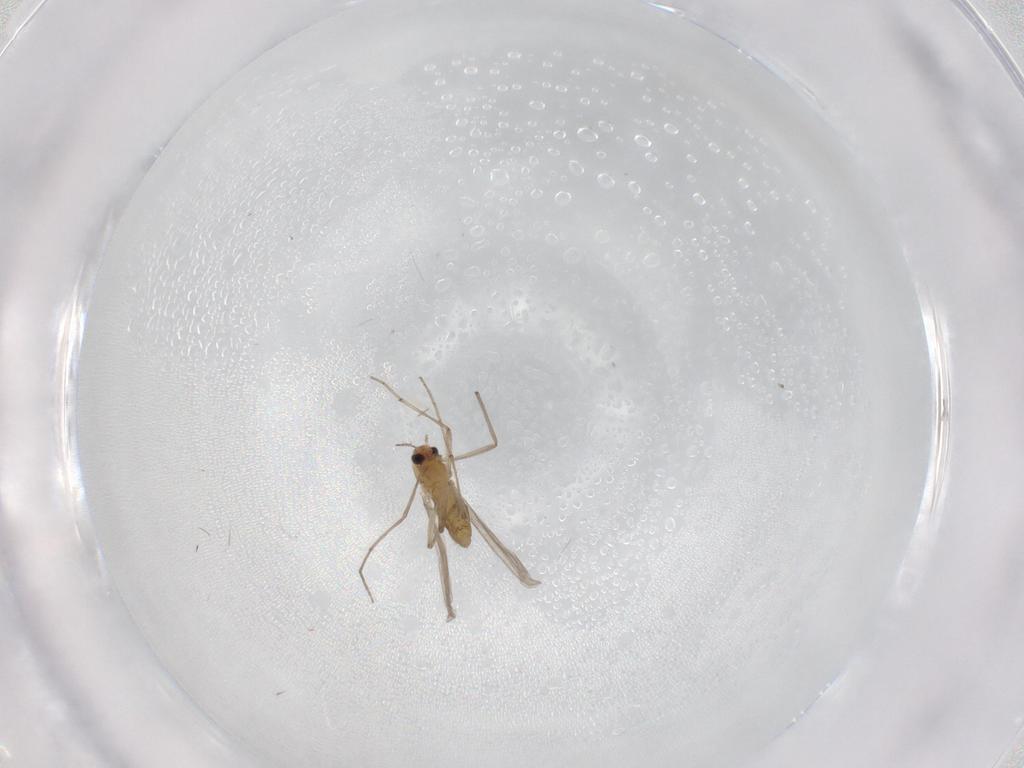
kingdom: Animalia
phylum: Arthropoda
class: Insecta
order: Diptera
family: Chironomidae
